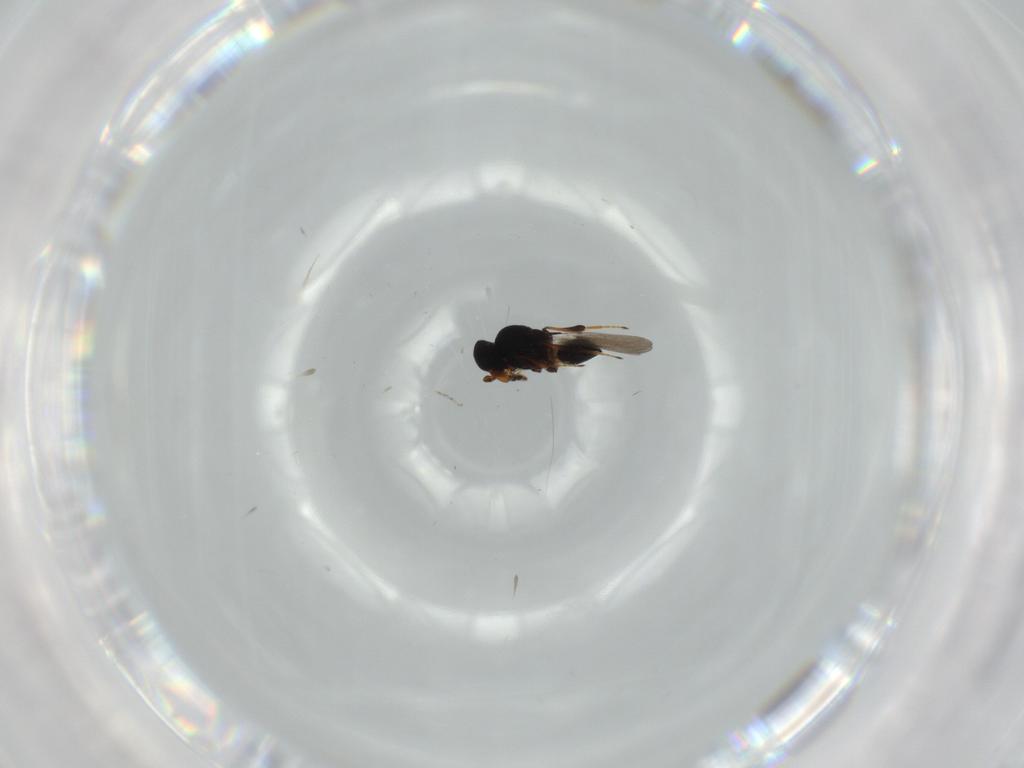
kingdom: Animalia
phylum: Arthropoda
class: Insecta
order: Hymenoptera
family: Platygastridae
